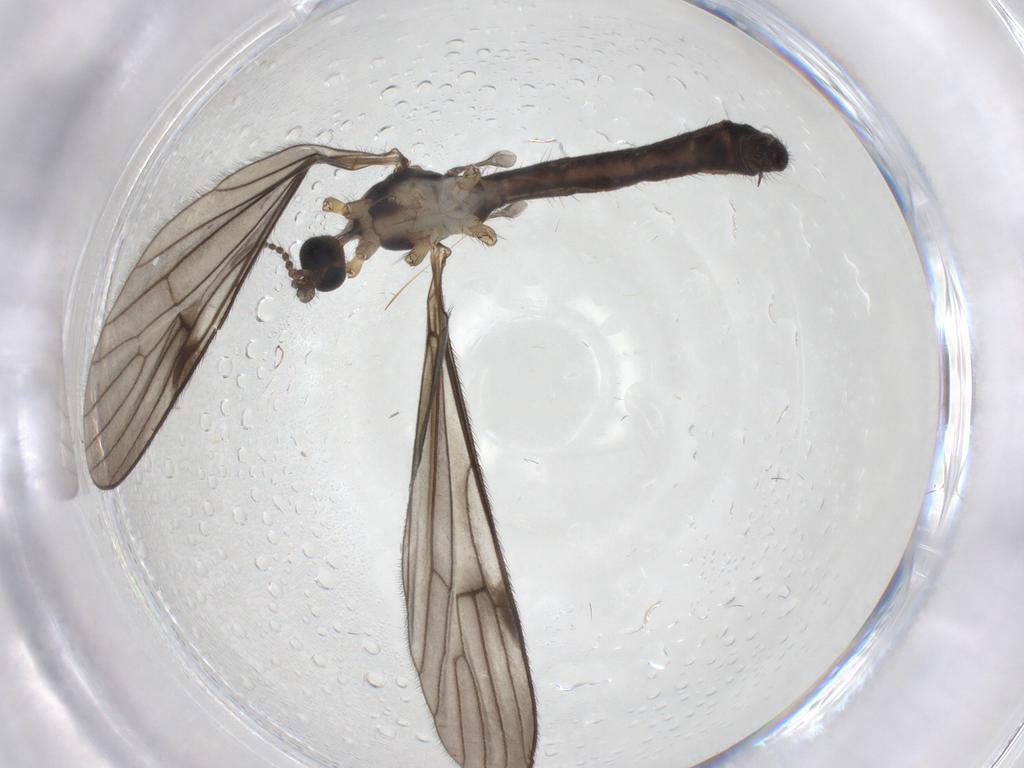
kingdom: Animalia
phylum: Arthropoda
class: Insecta
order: Diptera
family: Limoniidae
